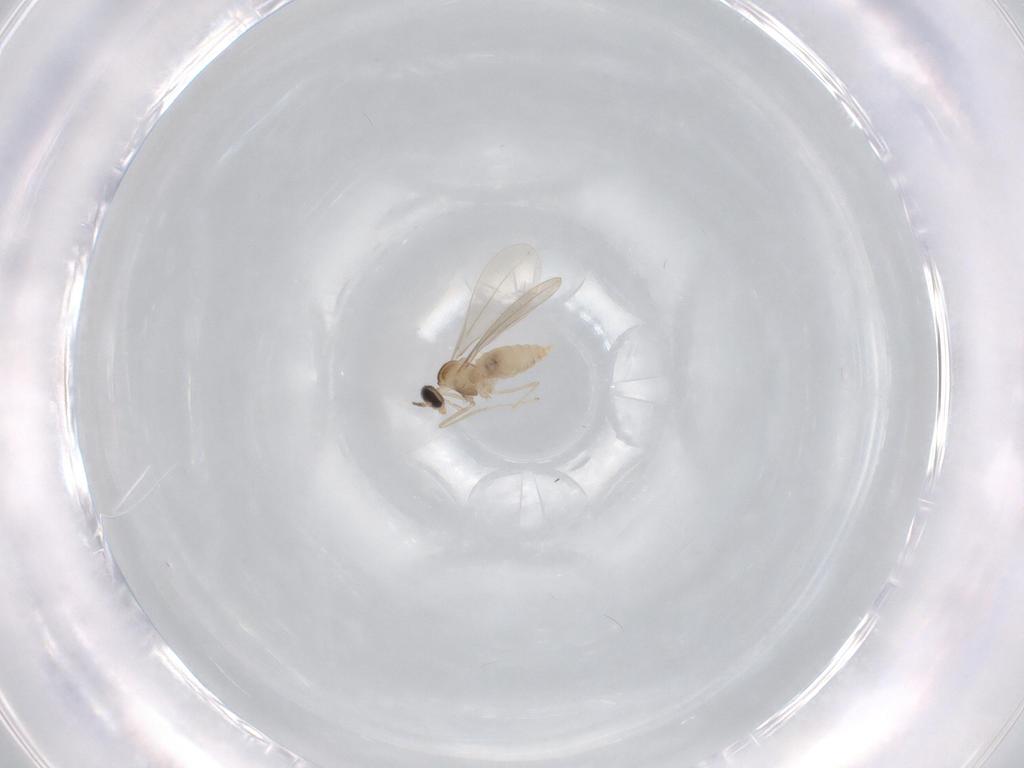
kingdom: Animalia
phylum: Arthropoda
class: Insecta
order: Diptera
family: Cecidomyiidae
